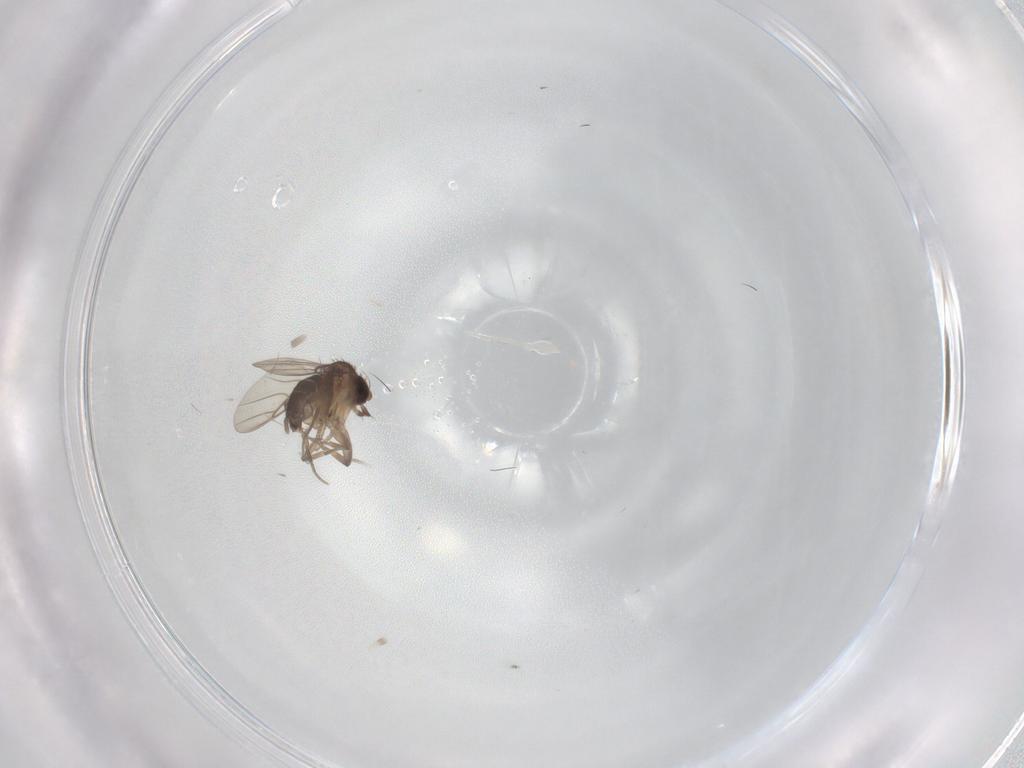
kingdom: Animalia
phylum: Arthropoda
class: Insecta
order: Diptera
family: Phoridae
